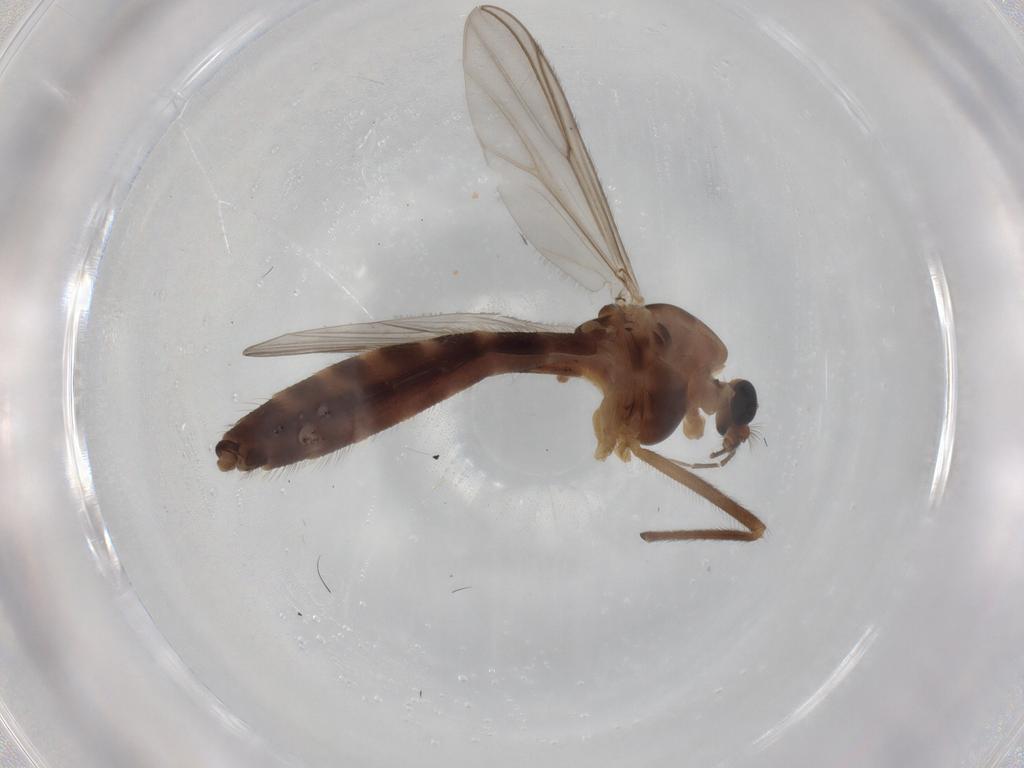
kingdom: Animalia
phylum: Arthropoda
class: Insecta
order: Diptera
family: Chironomidae
